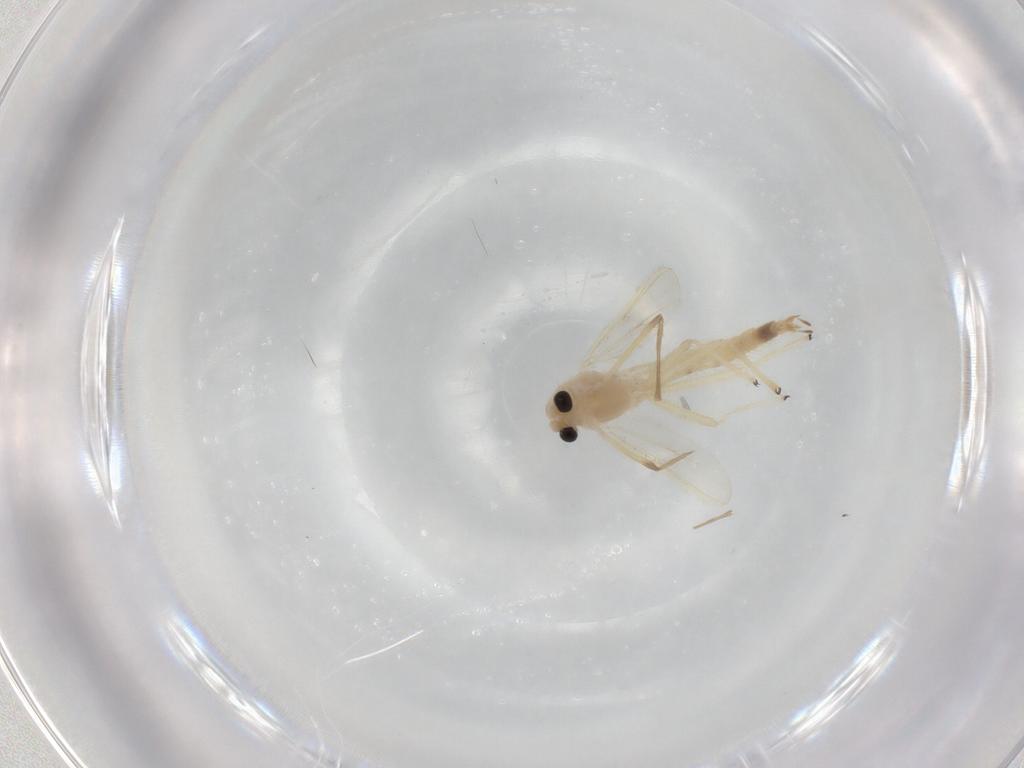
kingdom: Animalia
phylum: Arthropoda
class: Insecta
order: Diptera
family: Chironomidae
